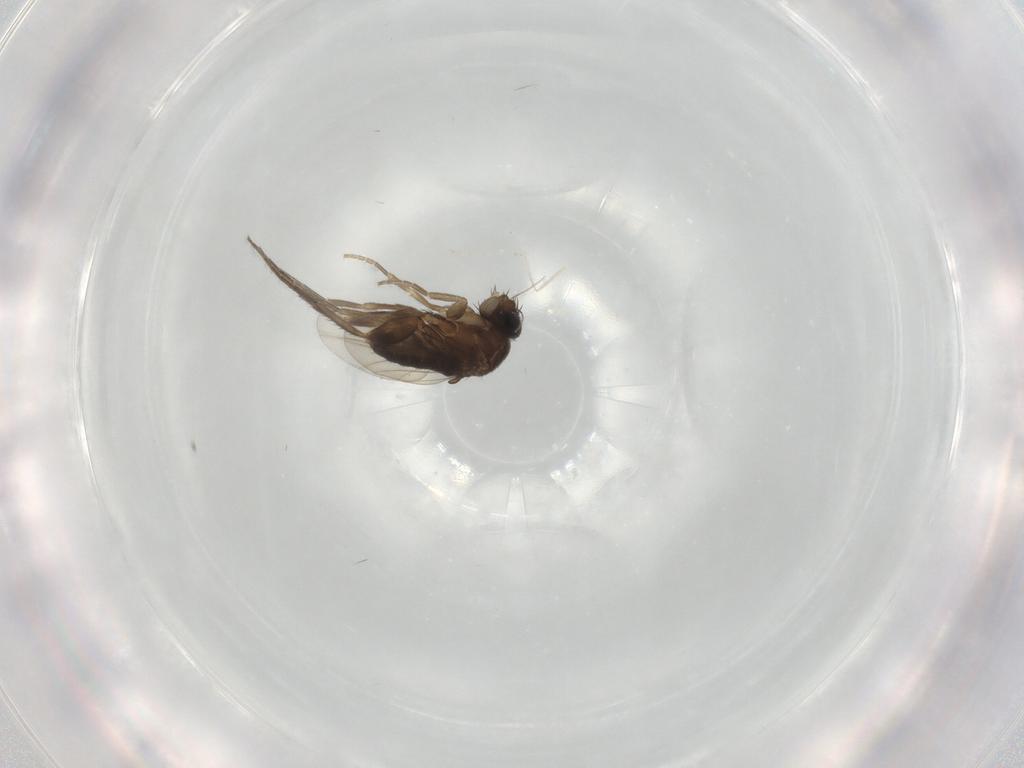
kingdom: Animalia
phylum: Arthropoda
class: Insecta
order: Diptera
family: Phoridae
